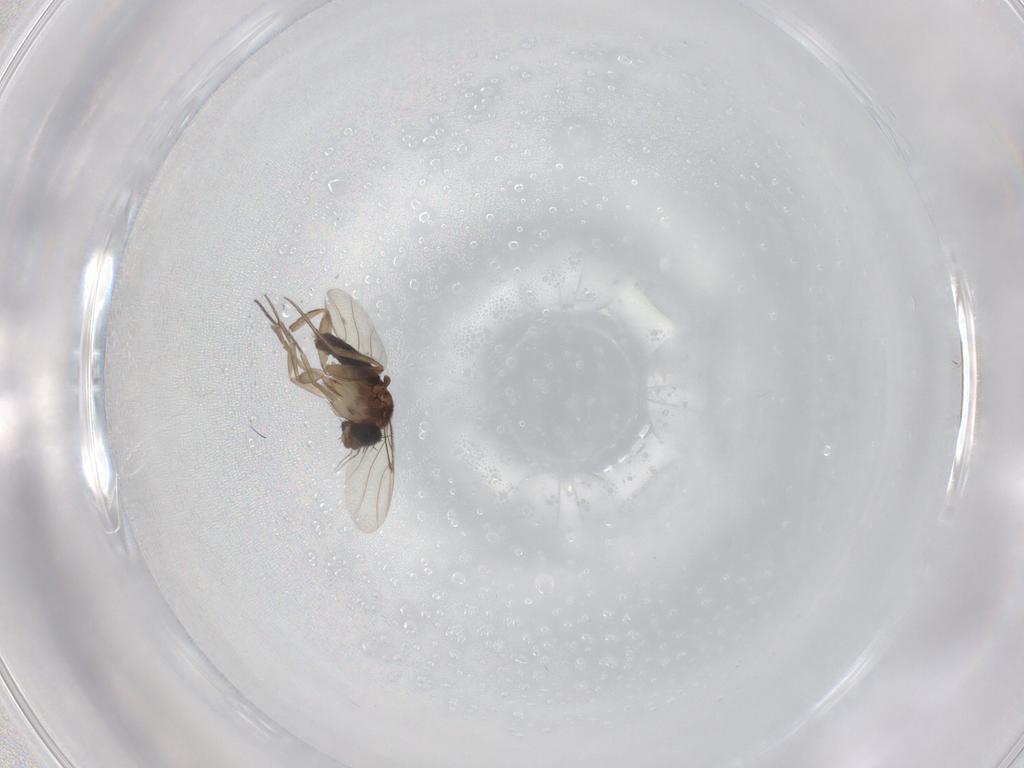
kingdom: Animalia
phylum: Arthropoda
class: Insecta
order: Diptera
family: Phoridae
